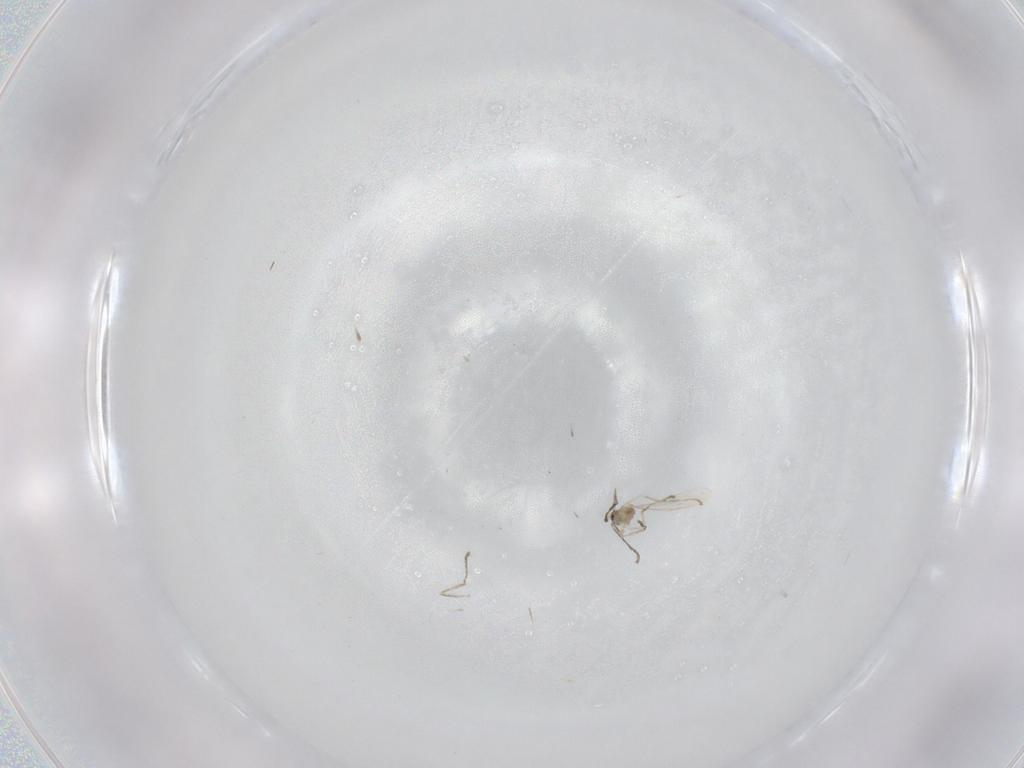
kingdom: Animalia
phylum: Arthropoda
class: Insecta
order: Diptera
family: Cecidomyiidae
